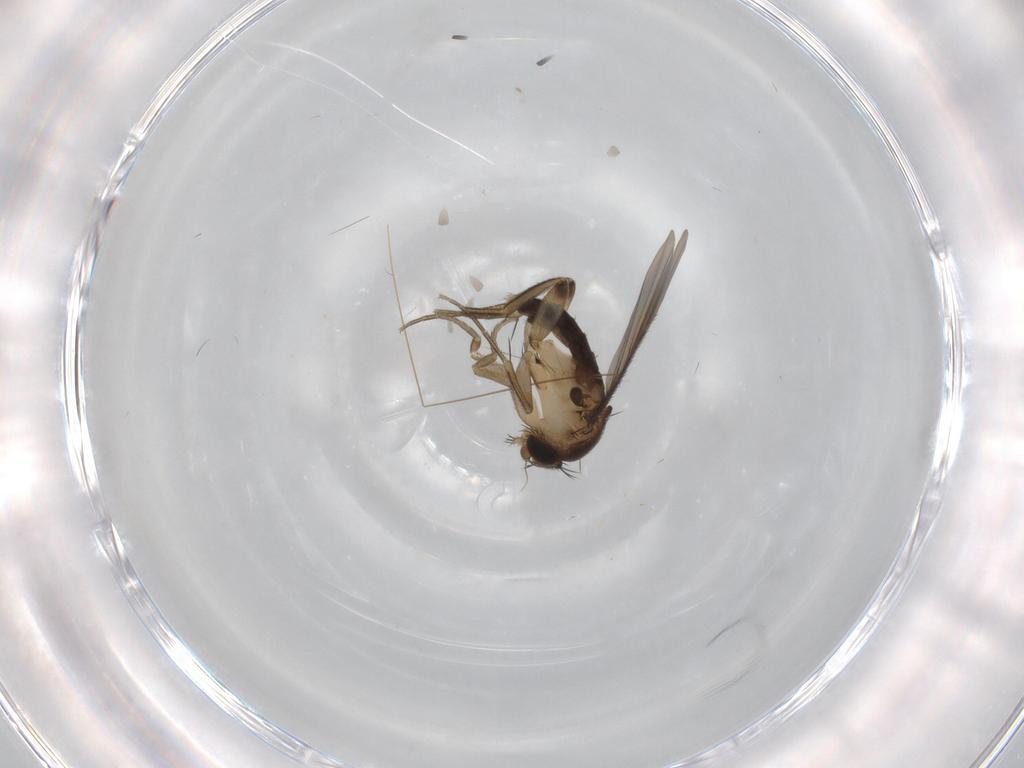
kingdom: Animalia
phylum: Arthropoda
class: Insecta
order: Diptera
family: Phoridae
